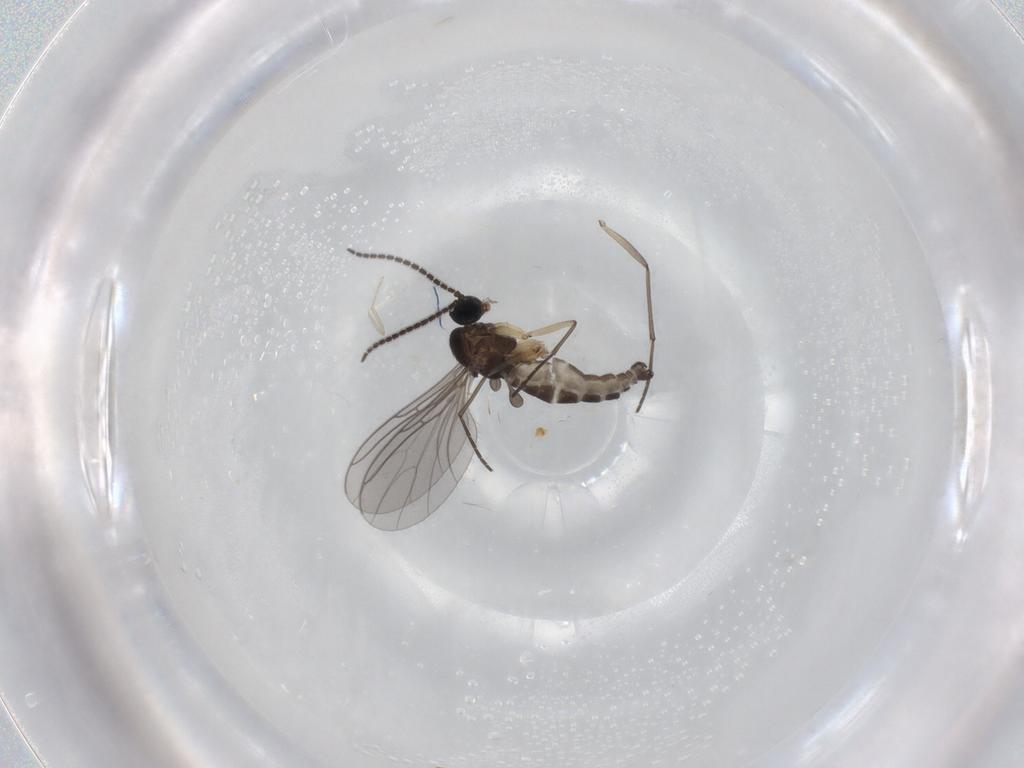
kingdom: Animalia
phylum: Arthropoda
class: Insecta
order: Diptera
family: Sciaridae
